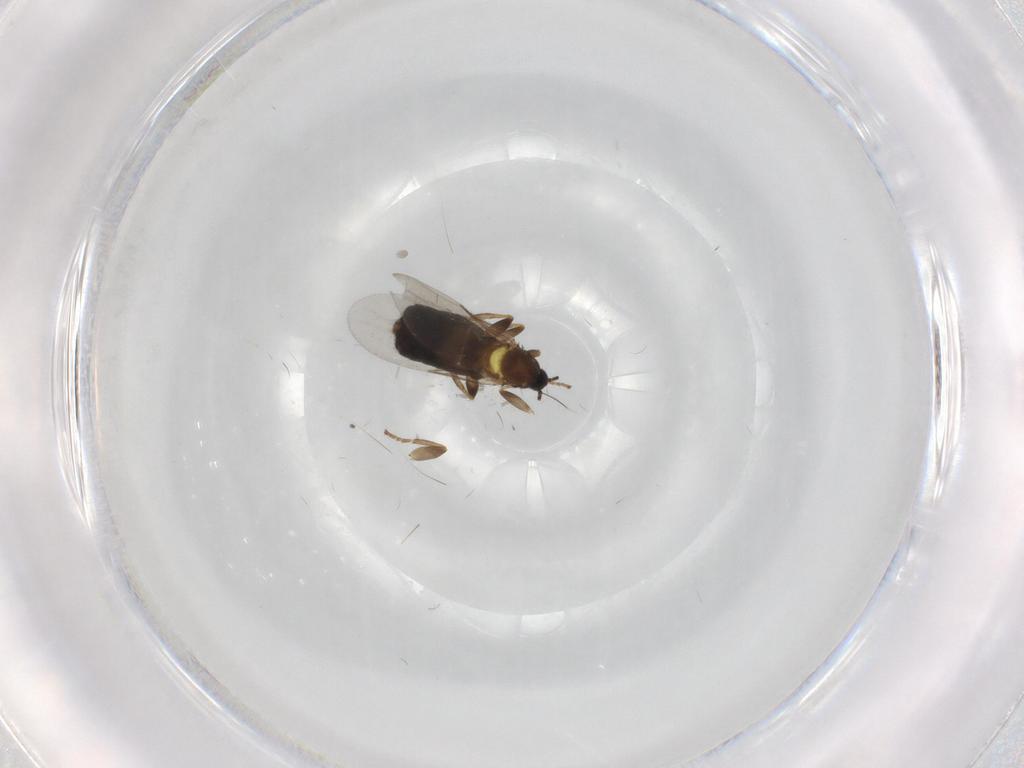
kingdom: Animalia
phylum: Arthropoda
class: Insecta
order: Diptera
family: Scatopsidae
